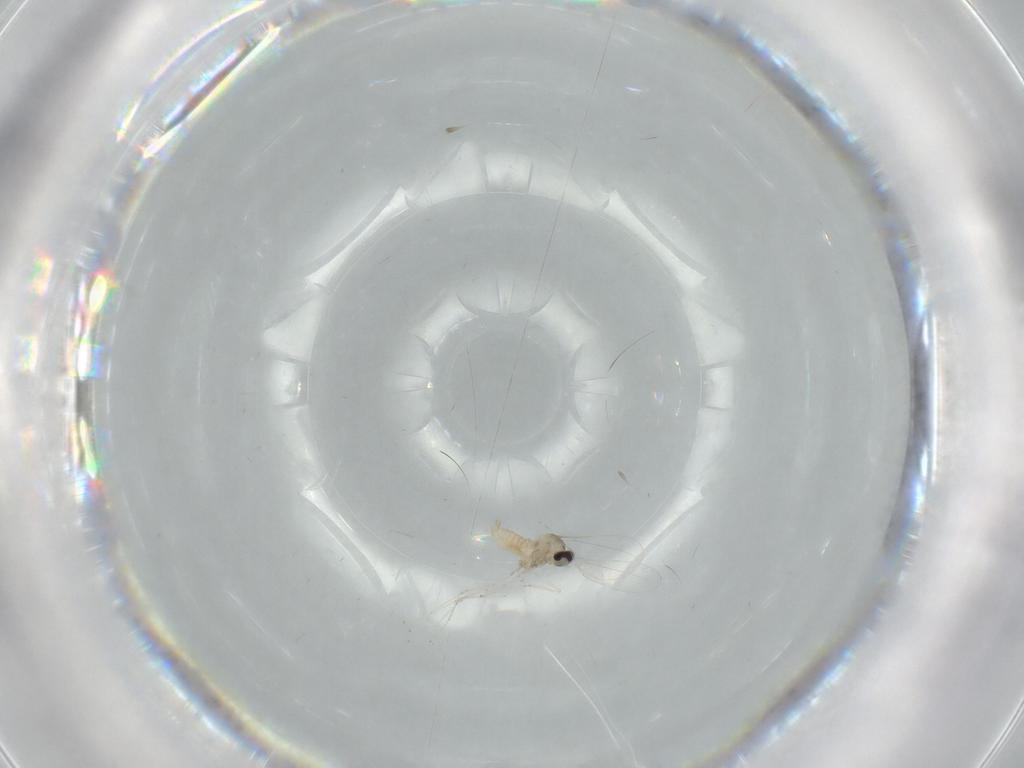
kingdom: Animalia
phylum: Arthropoda
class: Insecta
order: Diptera
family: Cecidomyiidae
